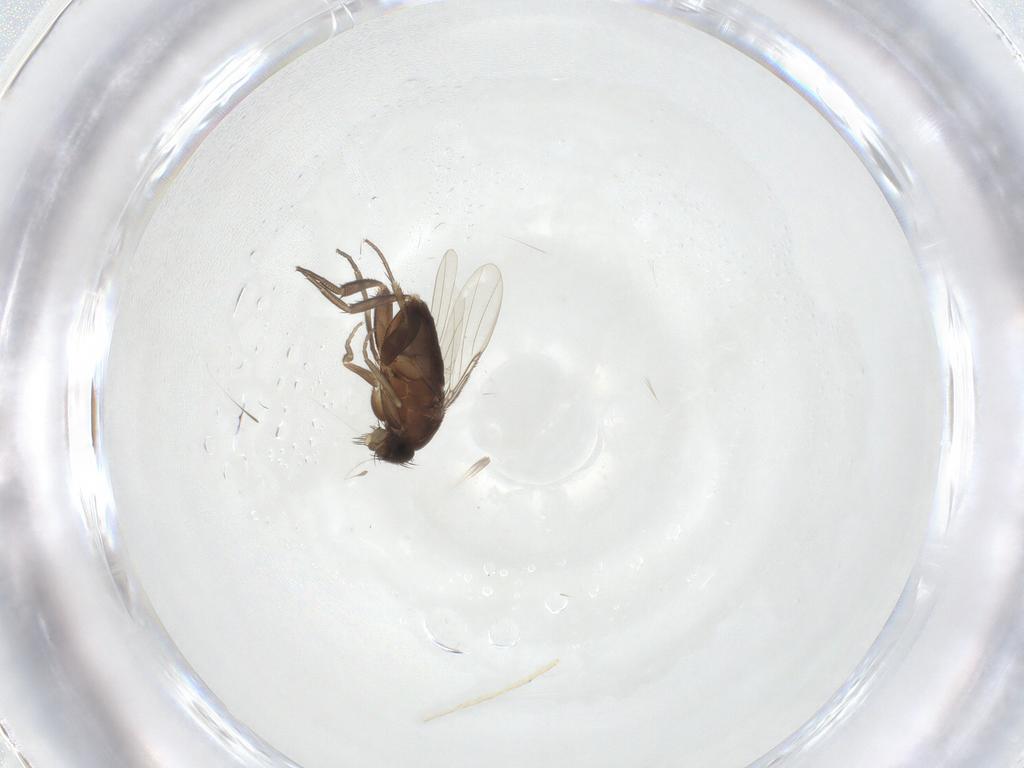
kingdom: Animalia
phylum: Arthropoda
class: Insecta
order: Diptera
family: Phoridae
